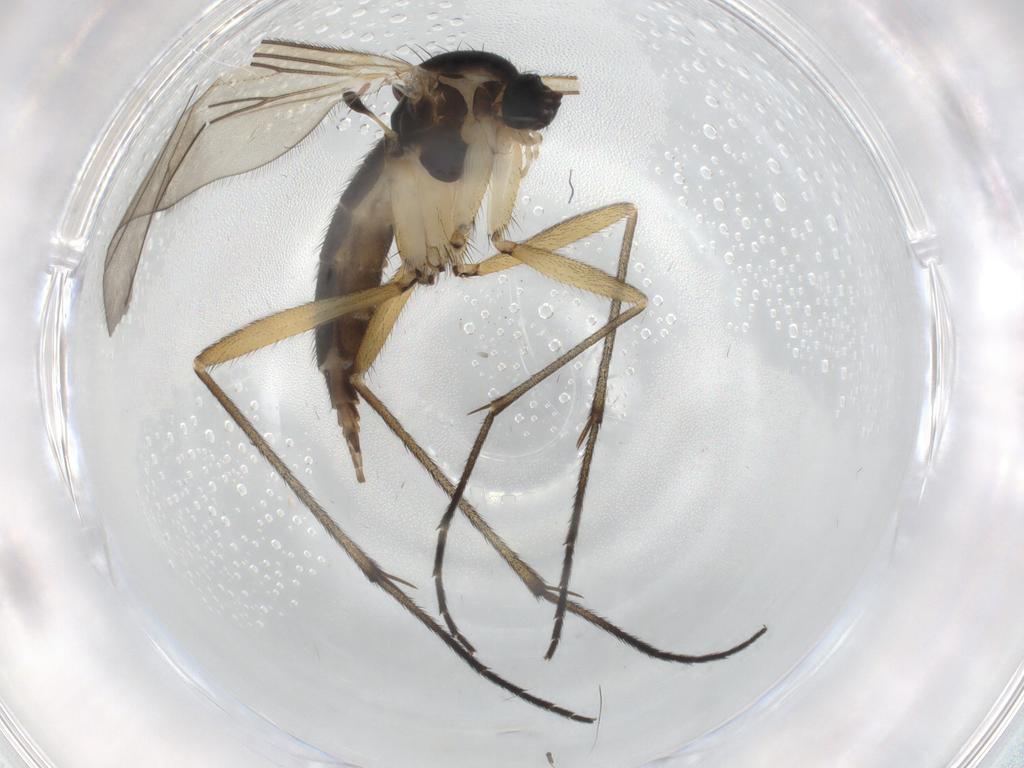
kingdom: Animalia
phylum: Arthropoda
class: Insecta
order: Diptera
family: Sciaridae
